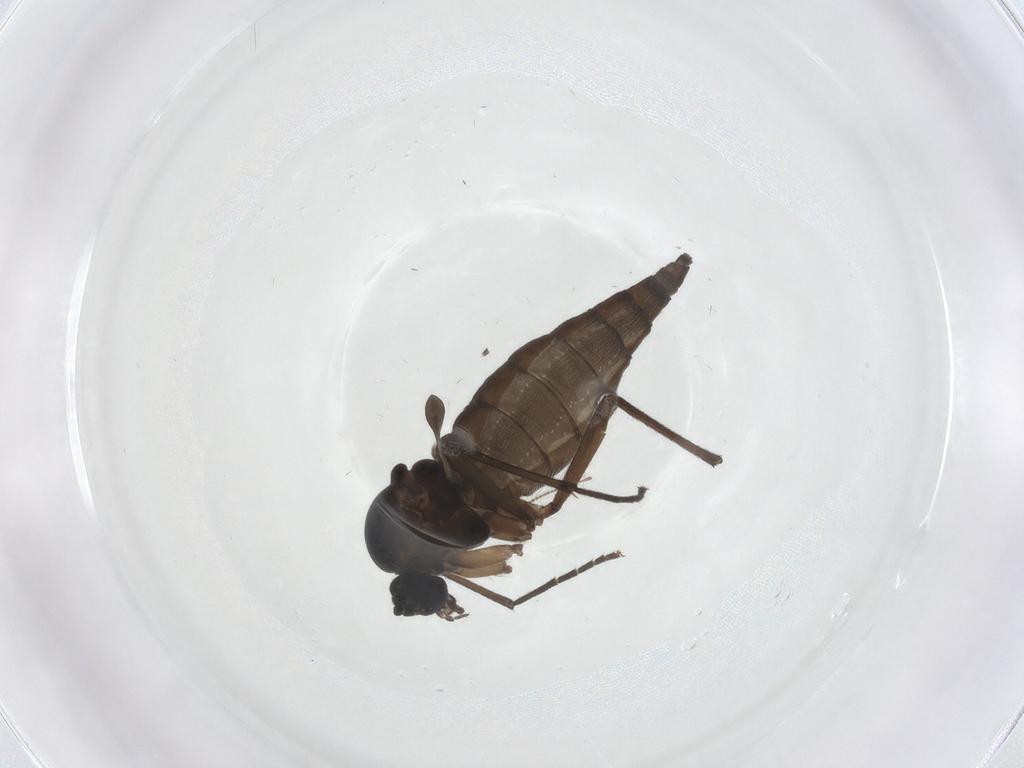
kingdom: Animalia
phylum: Arthropoda
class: Insecta
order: Diptera
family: Sciaridae
